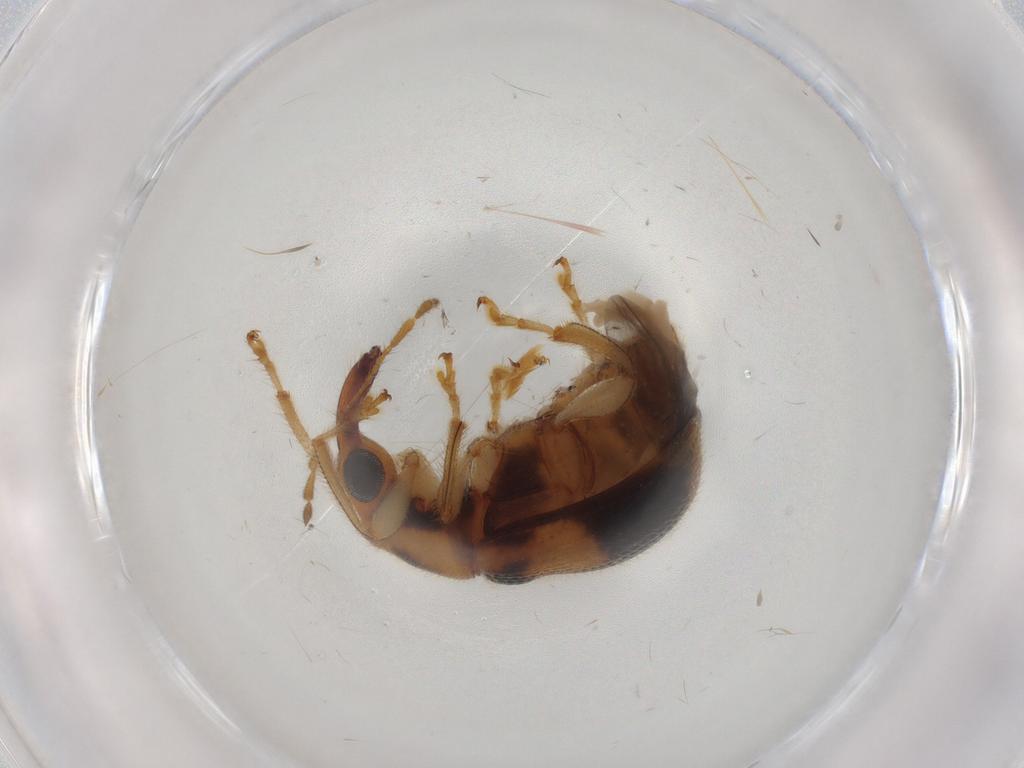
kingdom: Animalia
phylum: Arthropoda
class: Insecta
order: Coleoptera
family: Attelabidae
